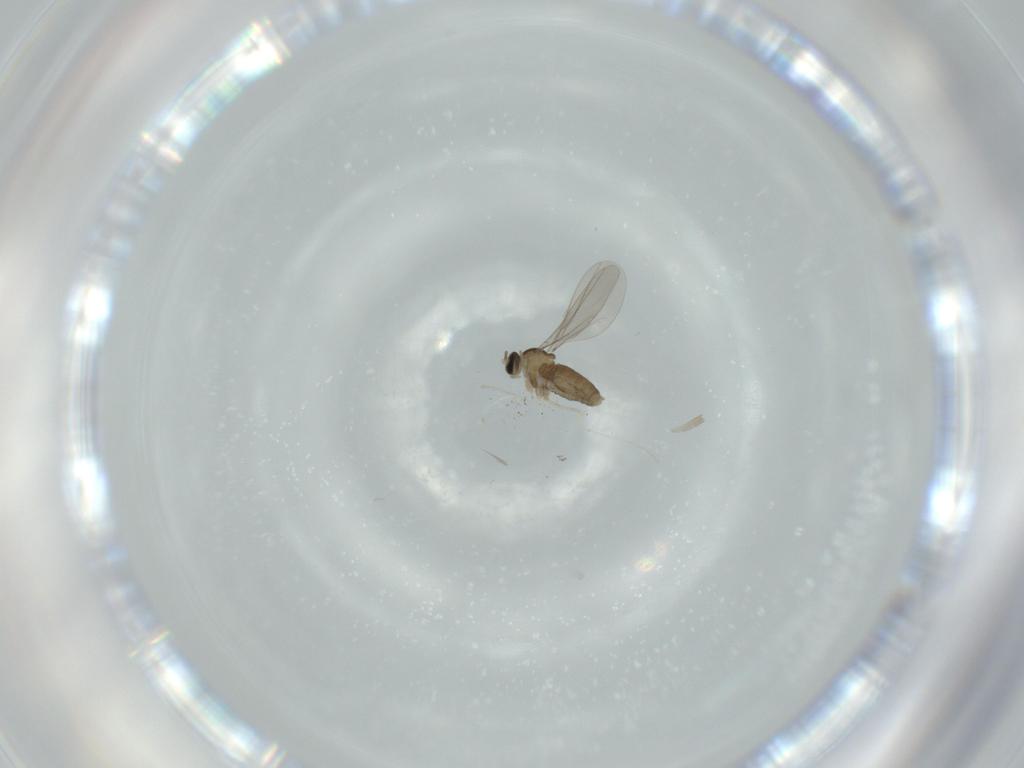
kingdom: Animalia
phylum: Arthropoda
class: Insecta
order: Diptera
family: Cecidomyiidae
